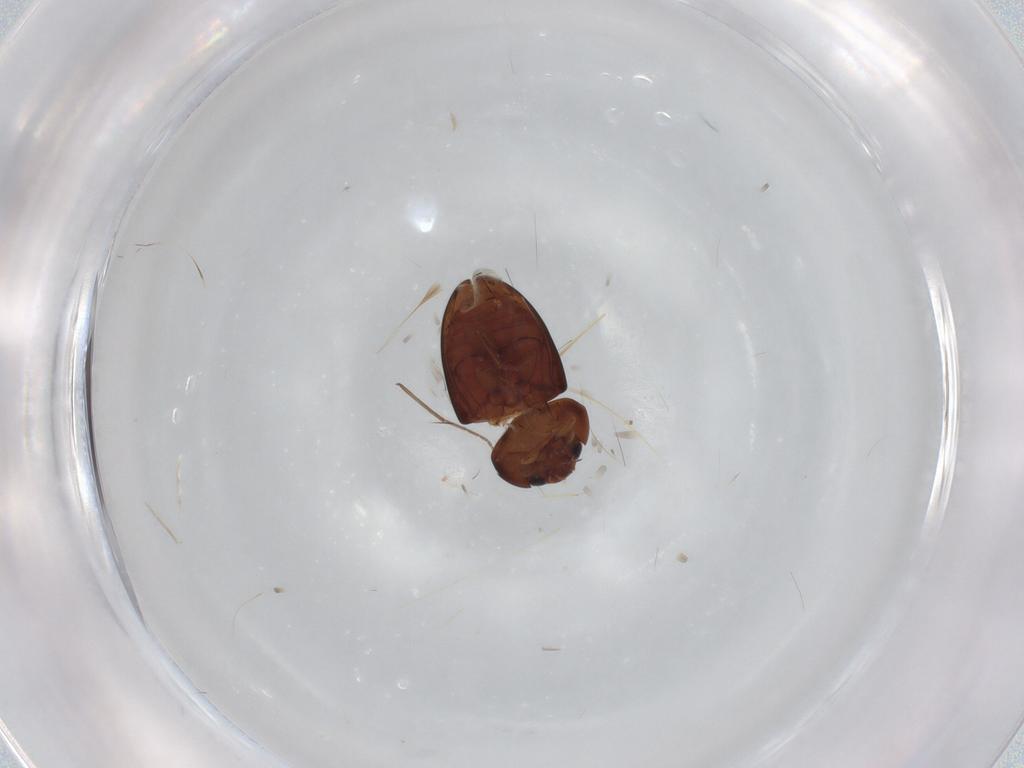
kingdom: Animalia
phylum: Arthropoda
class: Insecta
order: Coleoptera
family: Phalacridae
